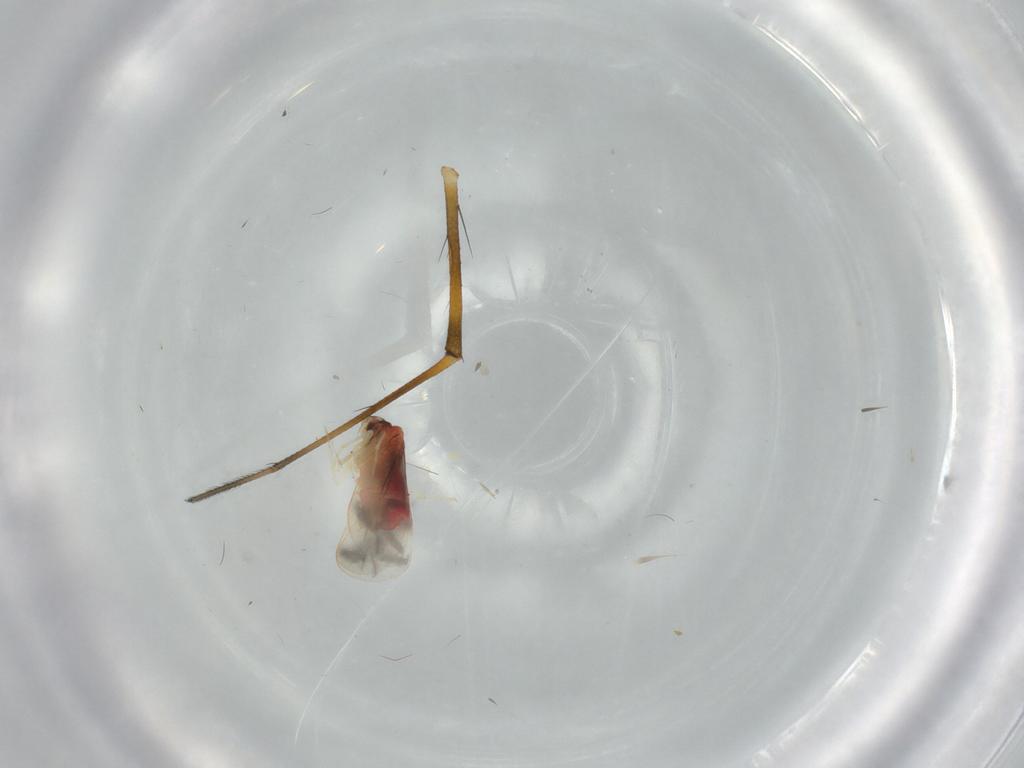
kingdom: Animalia
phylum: Arthropoda
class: Insecta
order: Hemiptera
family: Aleyrodidae
